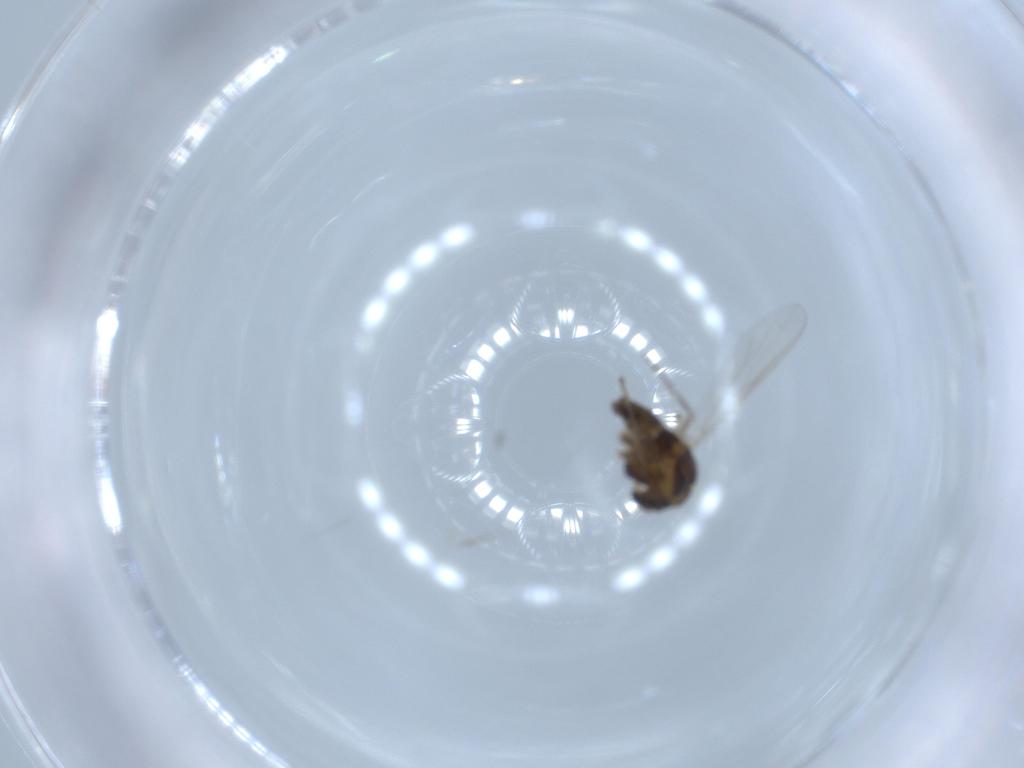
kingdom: Animalia
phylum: Arthropoda
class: Insecta
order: Diptera
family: Chironomidae
